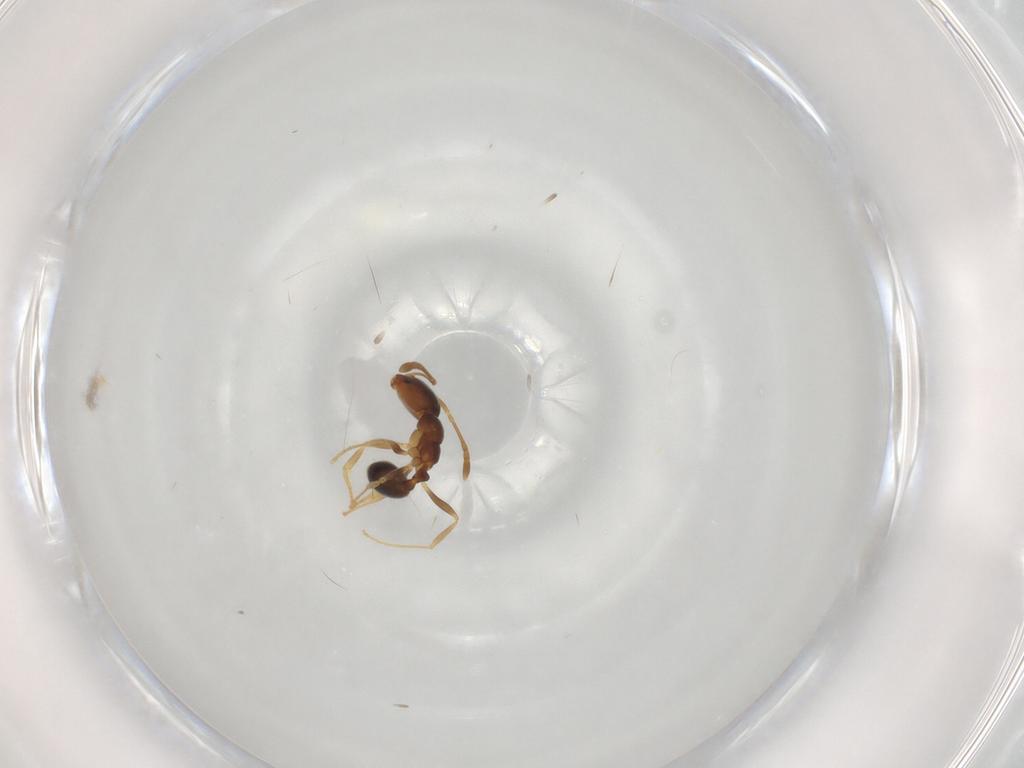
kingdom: Animalia
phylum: Arthropoda
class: Insecta
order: Hymenoptera
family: Formicidae
